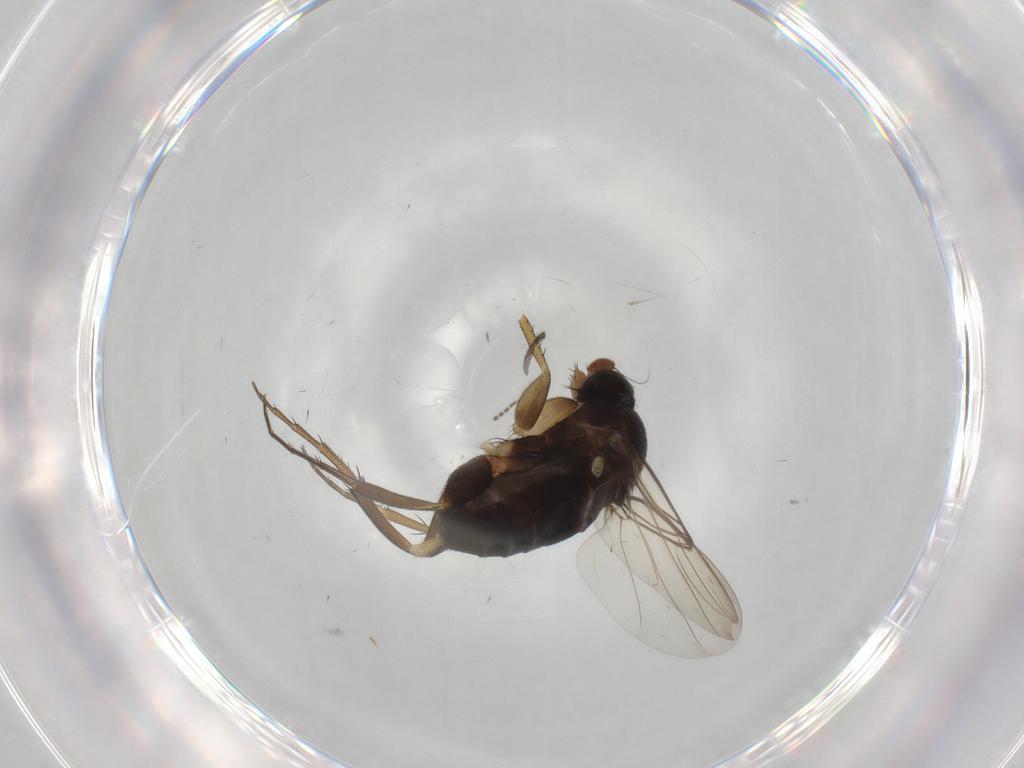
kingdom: Animalia
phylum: Arthropoda
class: Insecta
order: Diptera
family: Phoridae
